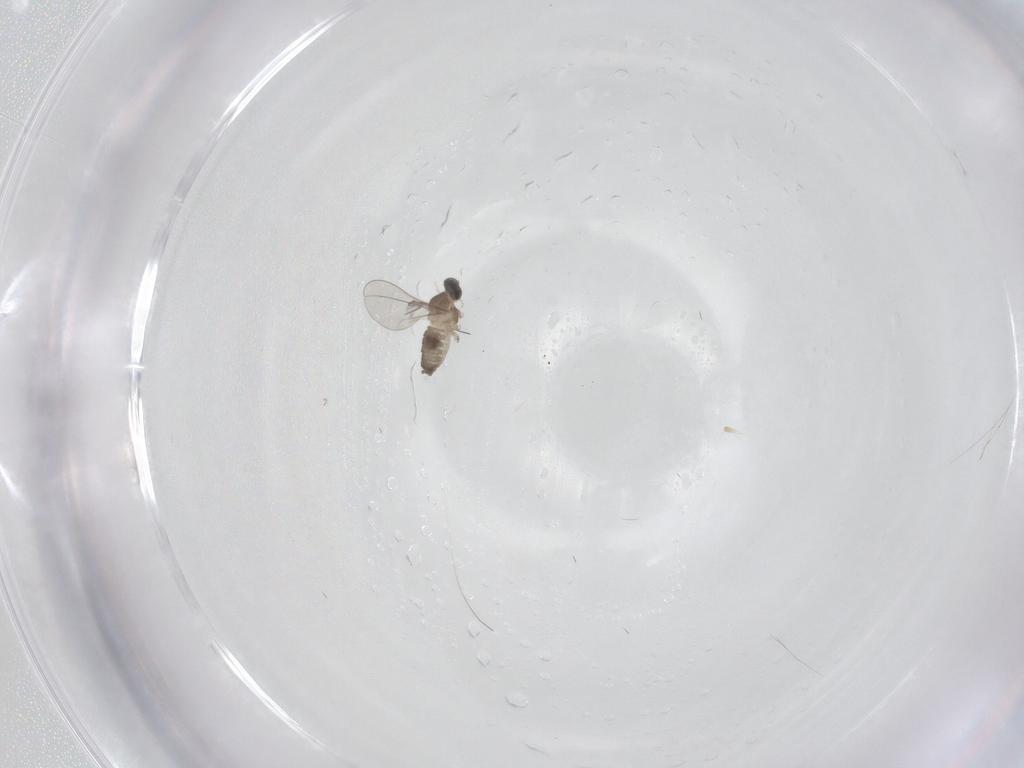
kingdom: Animalia
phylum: Arthropoda
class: Insecta
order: Diptera
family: Cecidomyiidae
